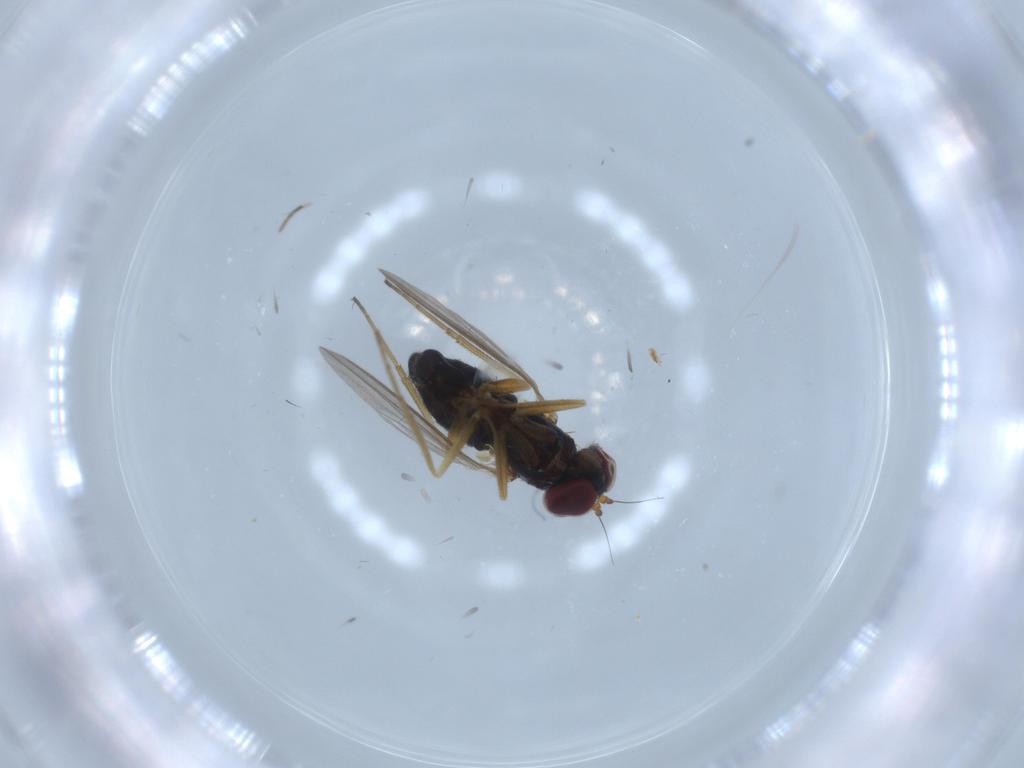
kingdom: Animalia
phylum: Arthropoda
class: Insecta
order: Diptera
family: Dolichopodidae
